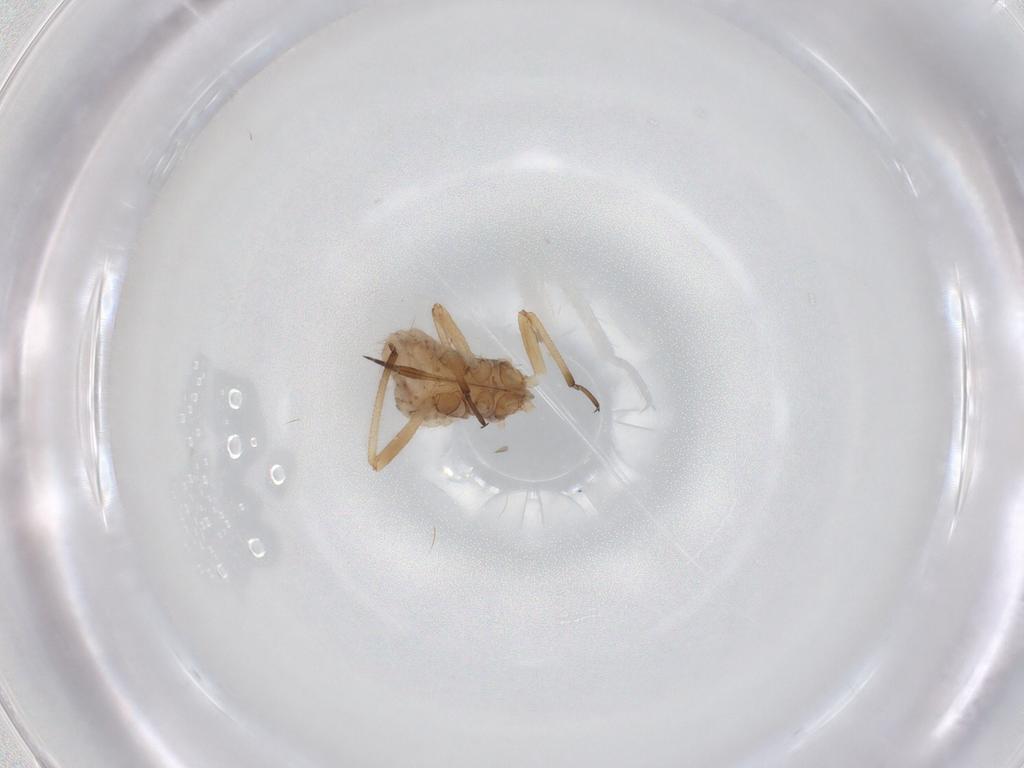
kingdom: Animalia
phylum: Arthropoda
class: Insecta
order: Hemiptera
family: Aphididae
